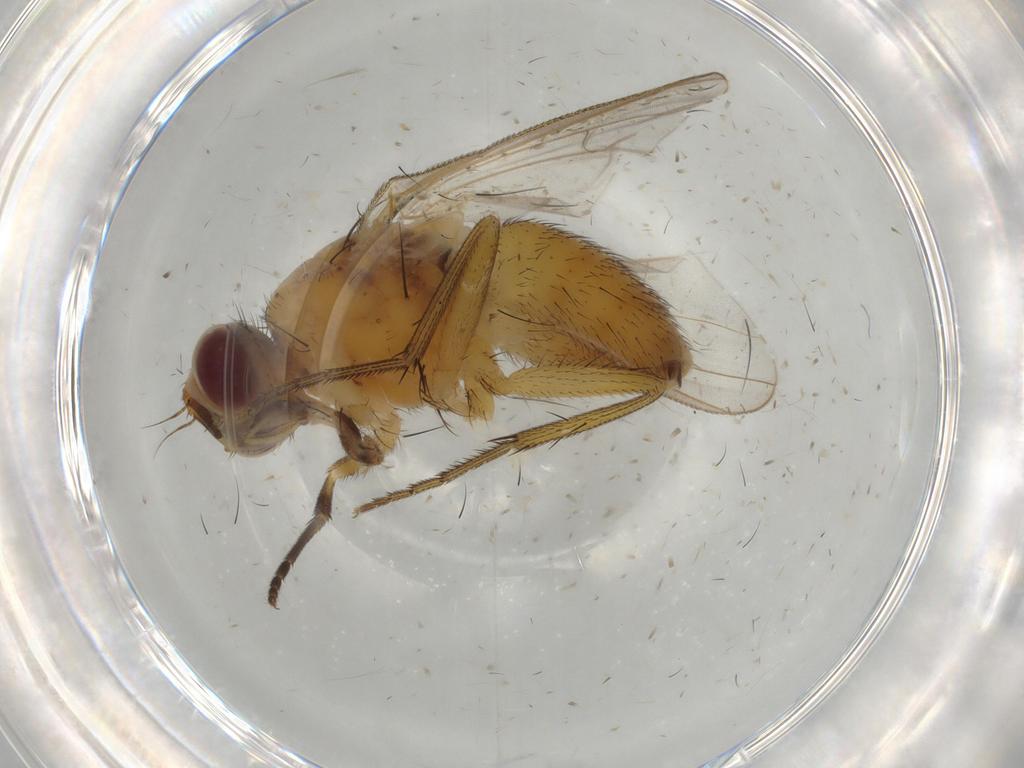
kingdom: Animalia
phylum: Arthropoda
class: Insecta
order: Diptera
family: Muscidae
